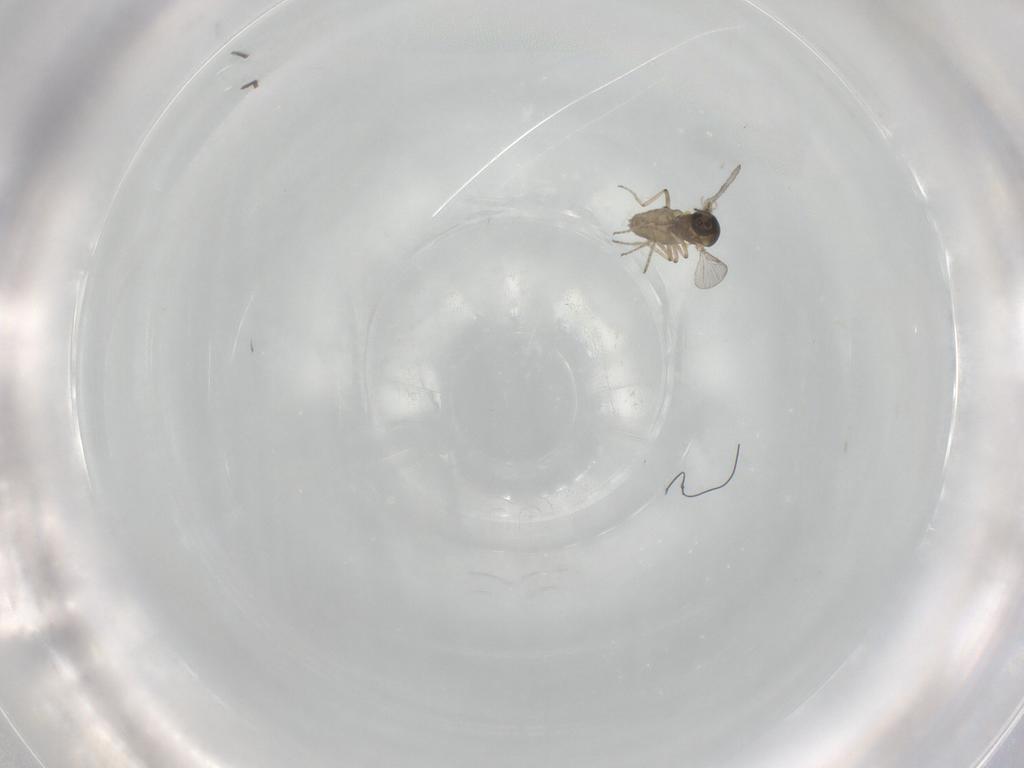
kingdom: Animalia
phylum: Arthropoda
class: Insecta
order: Diptera
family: Ceratopogonidae
